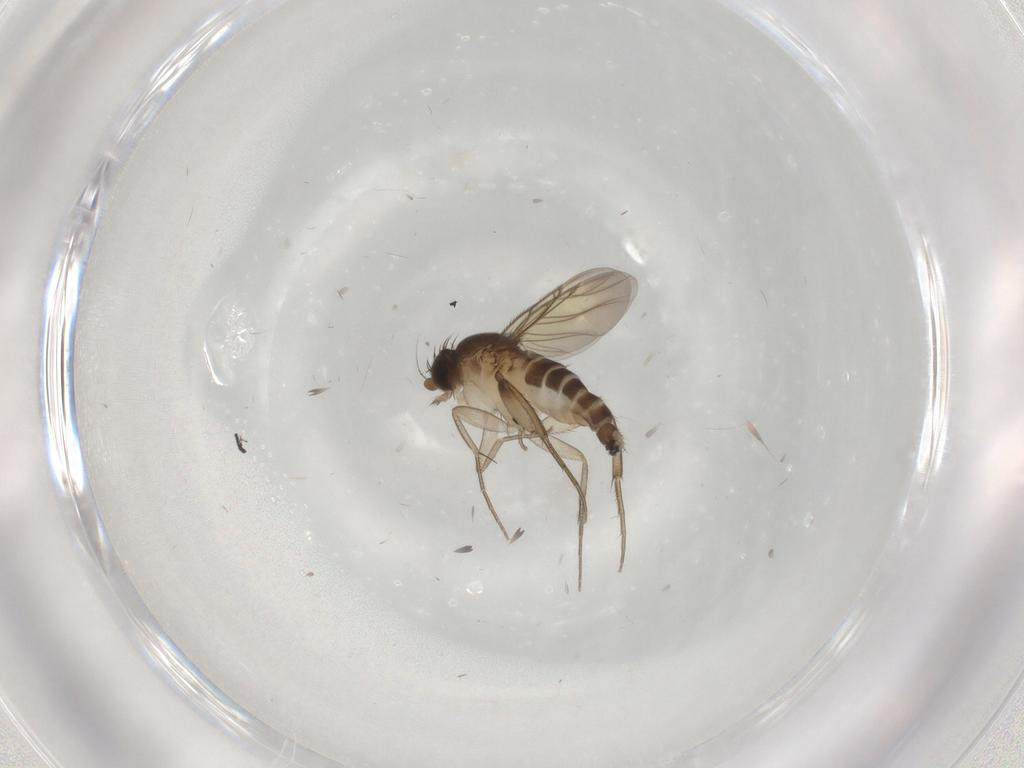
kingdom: Animalia
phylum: Arthropoda
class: Insecta
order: Diptera
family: Phoridae
